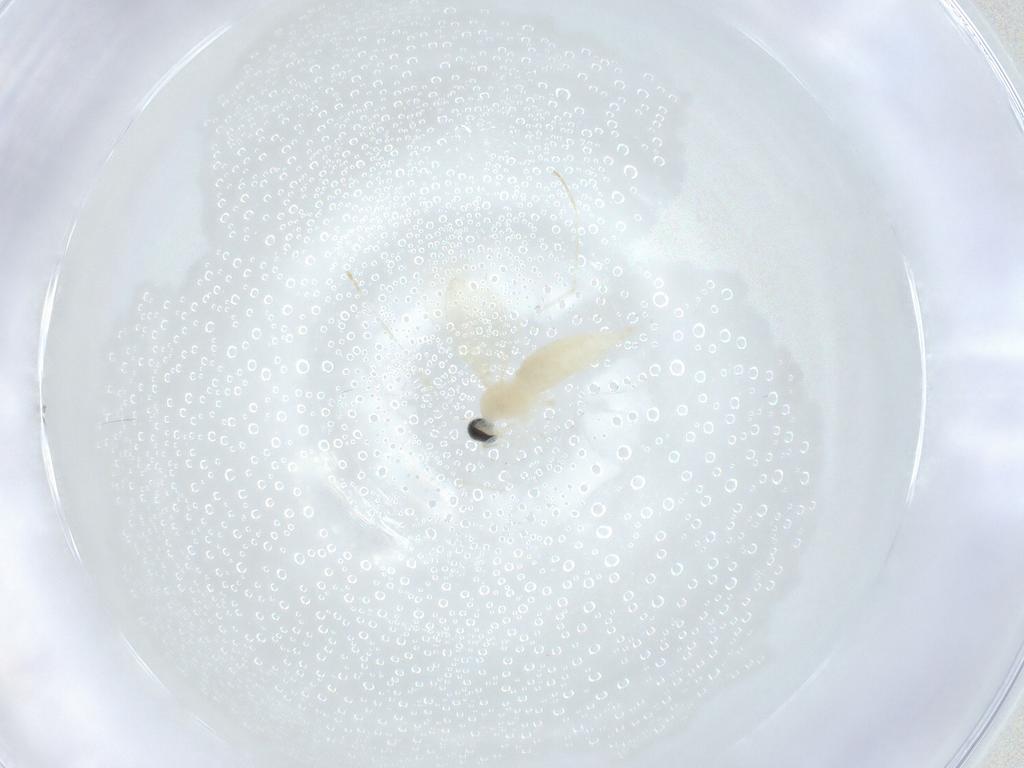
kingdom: Animalia
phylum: Arthropoda
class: Insecta
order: Diptera
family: Cecidomyiidae
